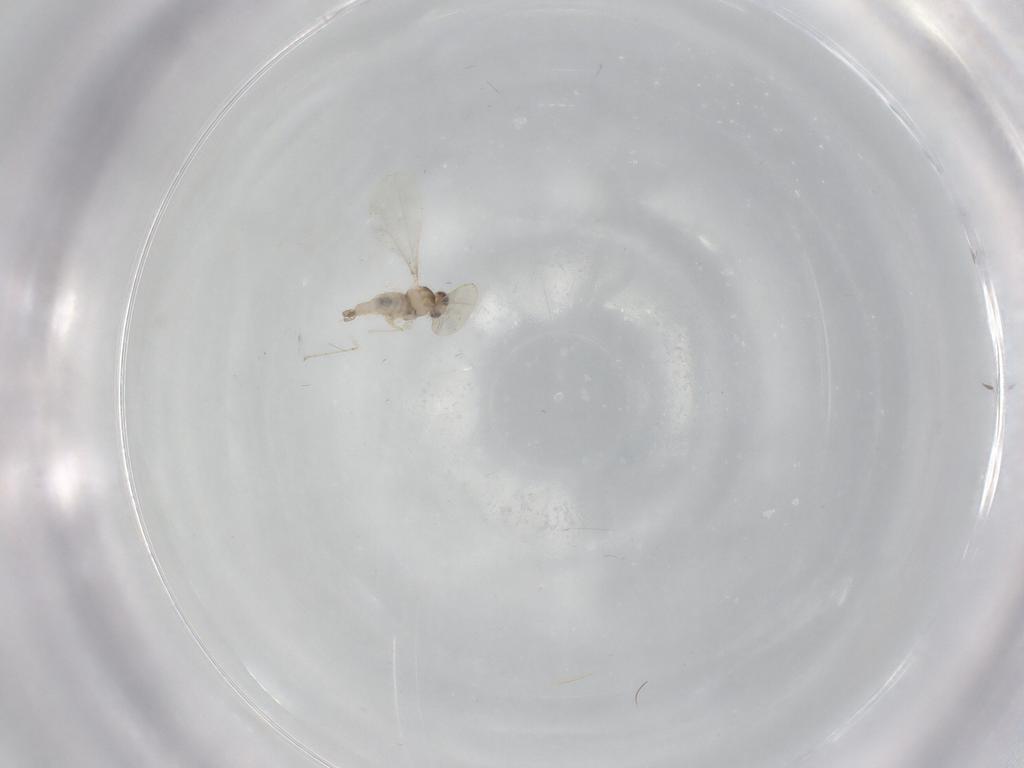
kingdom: Animalia
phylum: Arthropoda
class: Insecta
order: Diptera
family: Cecidomyiidae
